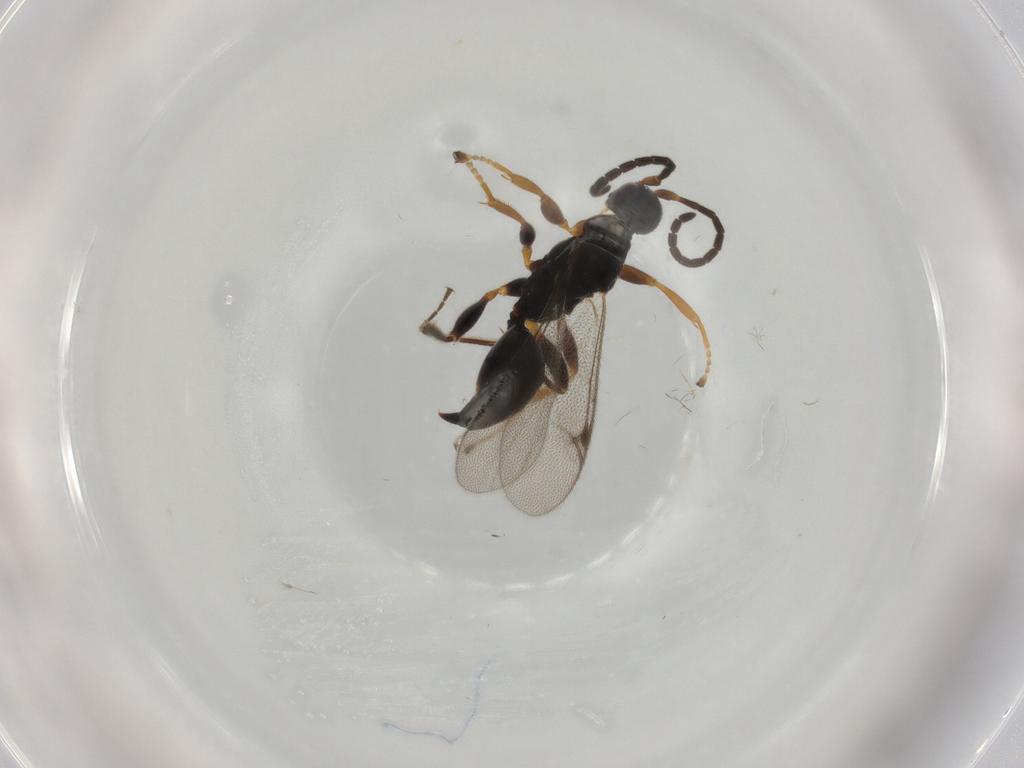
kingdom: Animalia
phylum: Arthropoda
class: Insecta
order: Hymenoptera
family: Proctotrupidae
